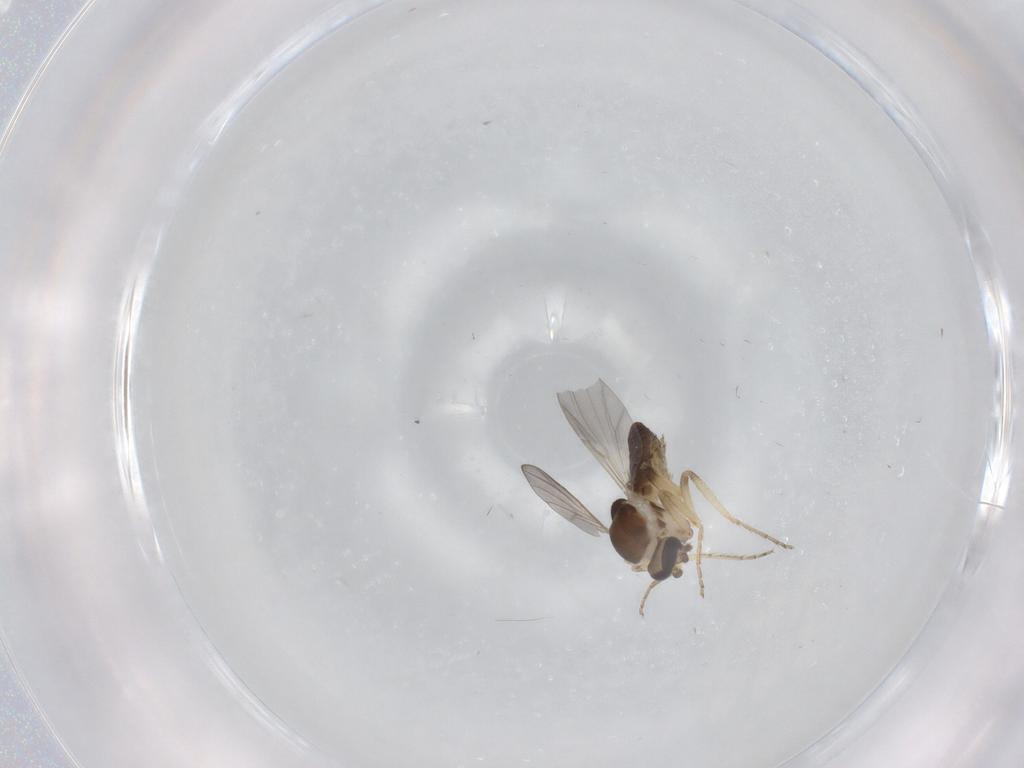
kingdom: Animalia
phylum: Arthropoda
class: Insecta
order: Diptera
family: Ceratopogonidae
